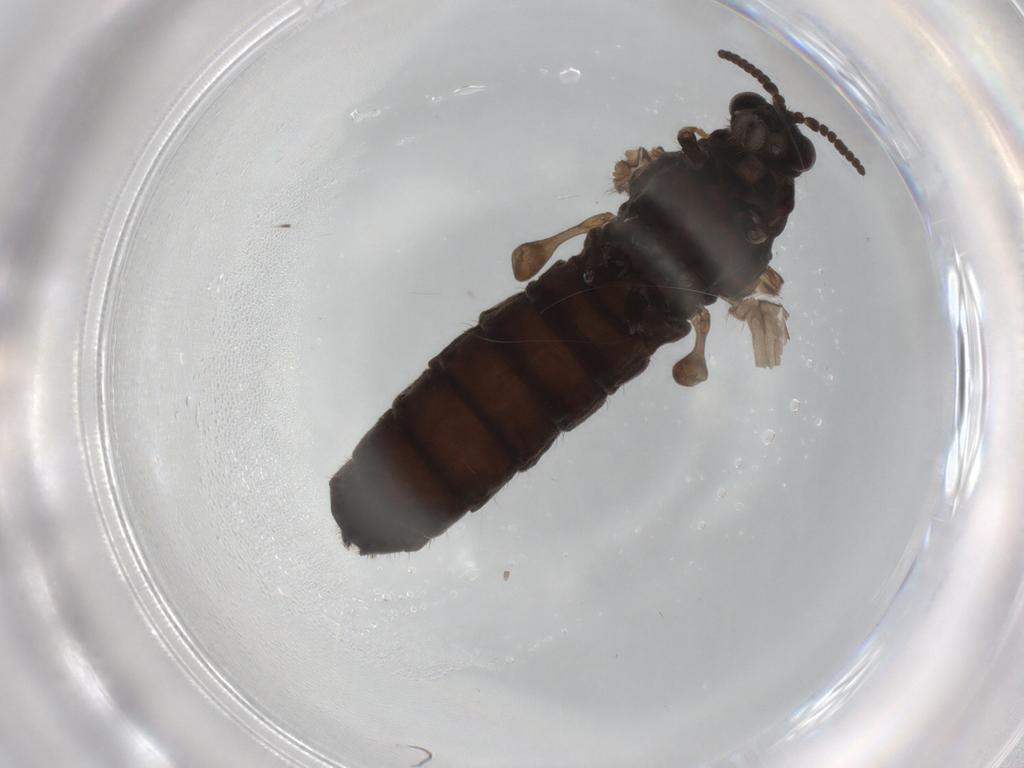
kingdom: Animalia
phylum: Arthropoda
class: Insecta
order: Diptera
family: Chironomidae
